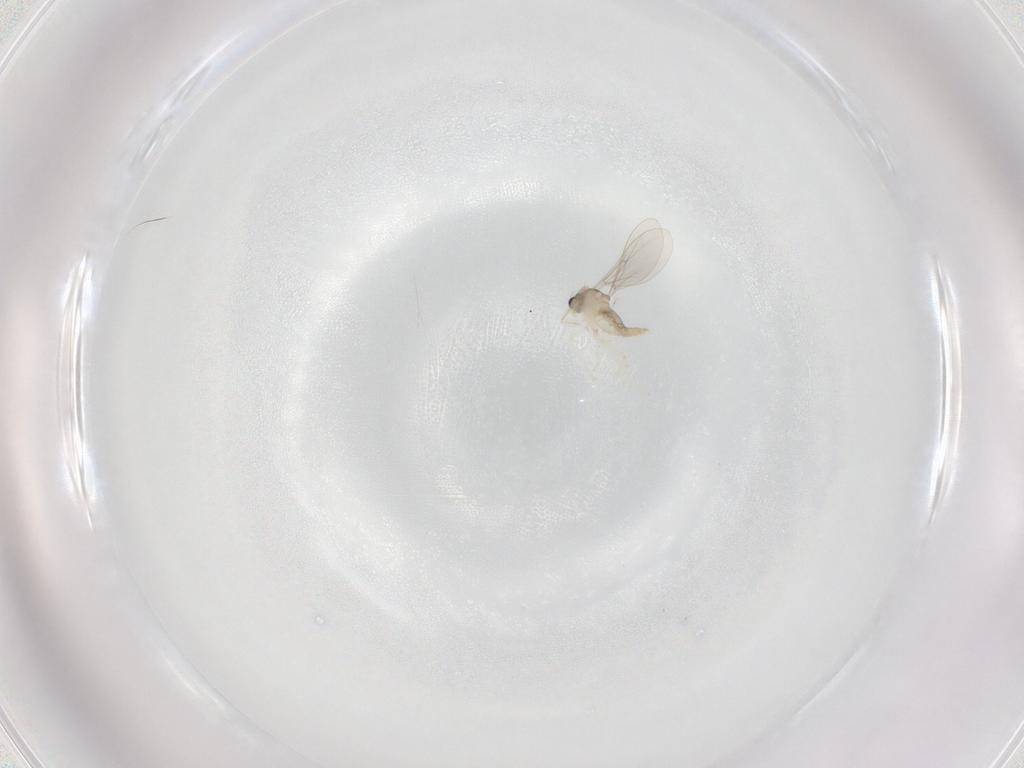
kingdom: Animalia
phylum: Arthropoda
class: Insecta
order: Diptera
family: Cecidomyiidae
